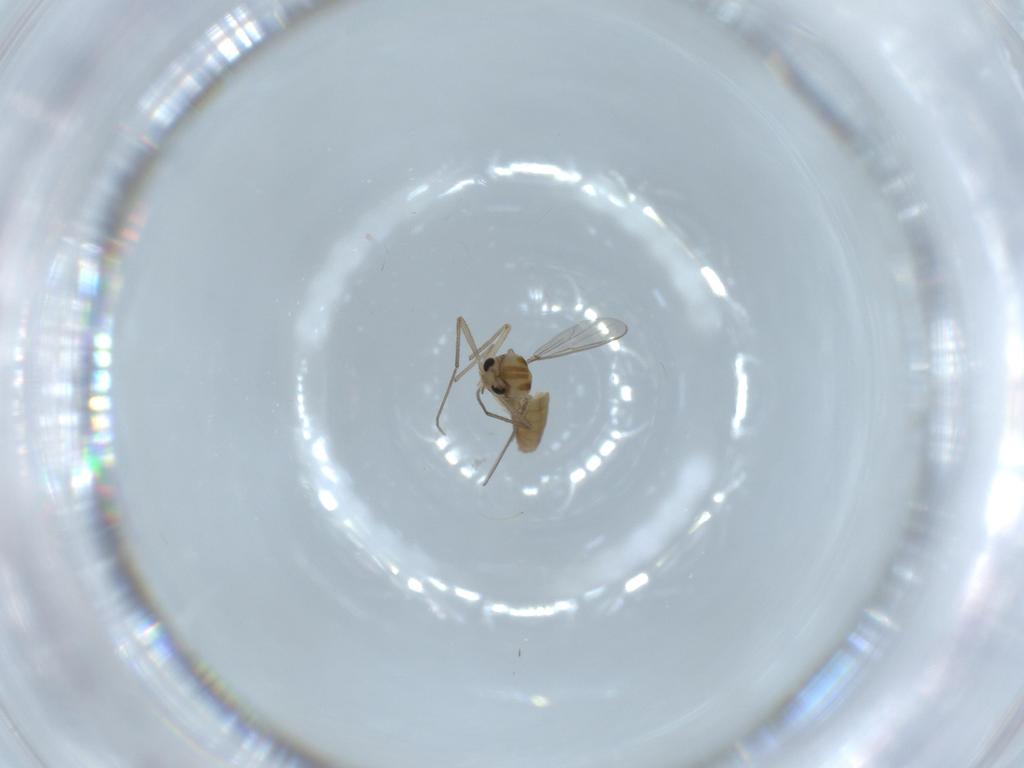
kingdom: Animalia
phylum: Arthropoda
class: Insecta
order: Diptera
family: Chironomidae
